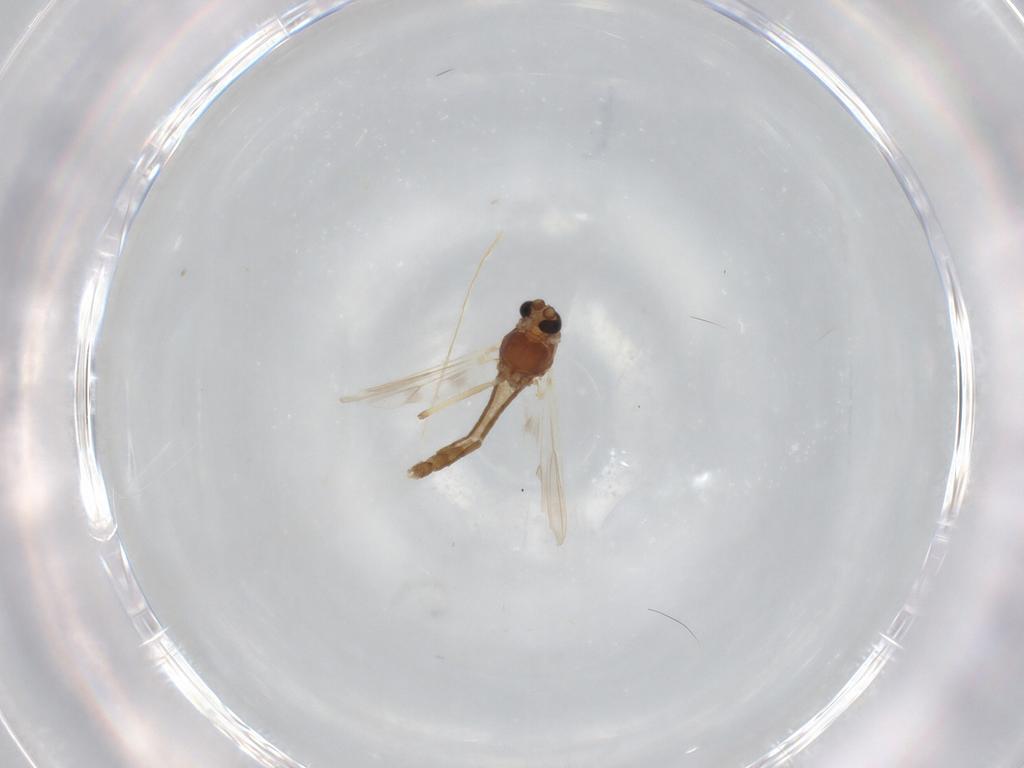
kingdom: Animalia
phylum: Arthropoda
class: Insecta
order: Diptera
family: Chironomidae
